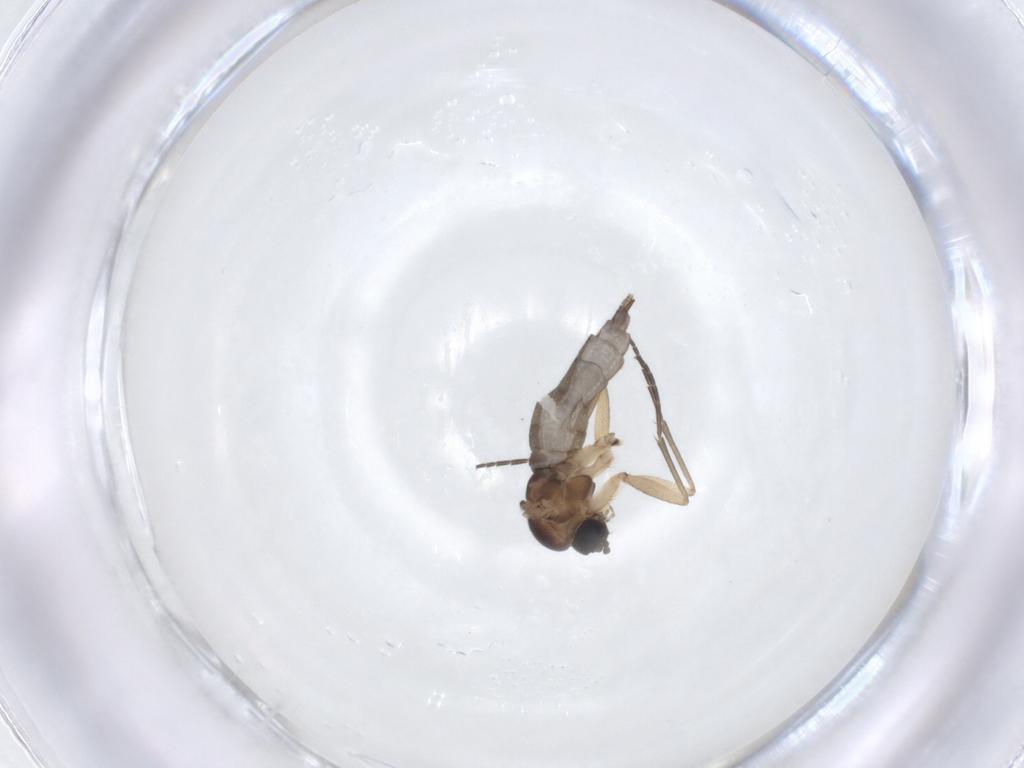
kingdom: Animalia
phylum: Arthropoda
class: Insecta
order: Diptera
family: Sciaridae
